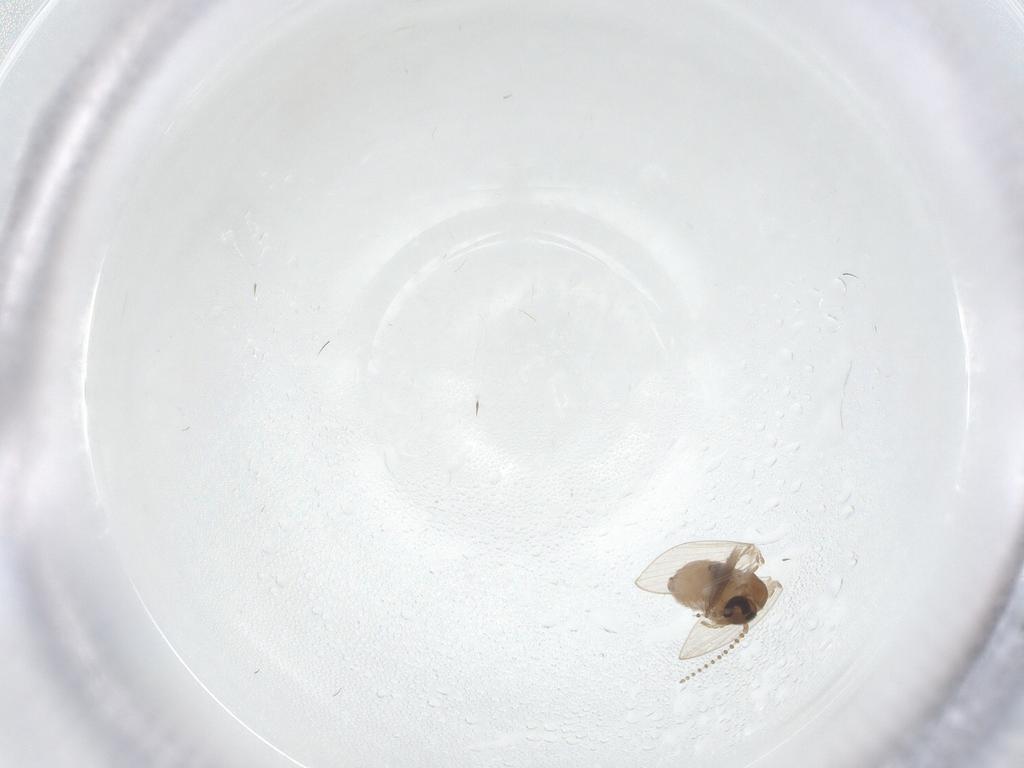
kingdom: Animalia
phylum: Arthropoda
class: Insecta
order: Diptera
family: Psychodidae
